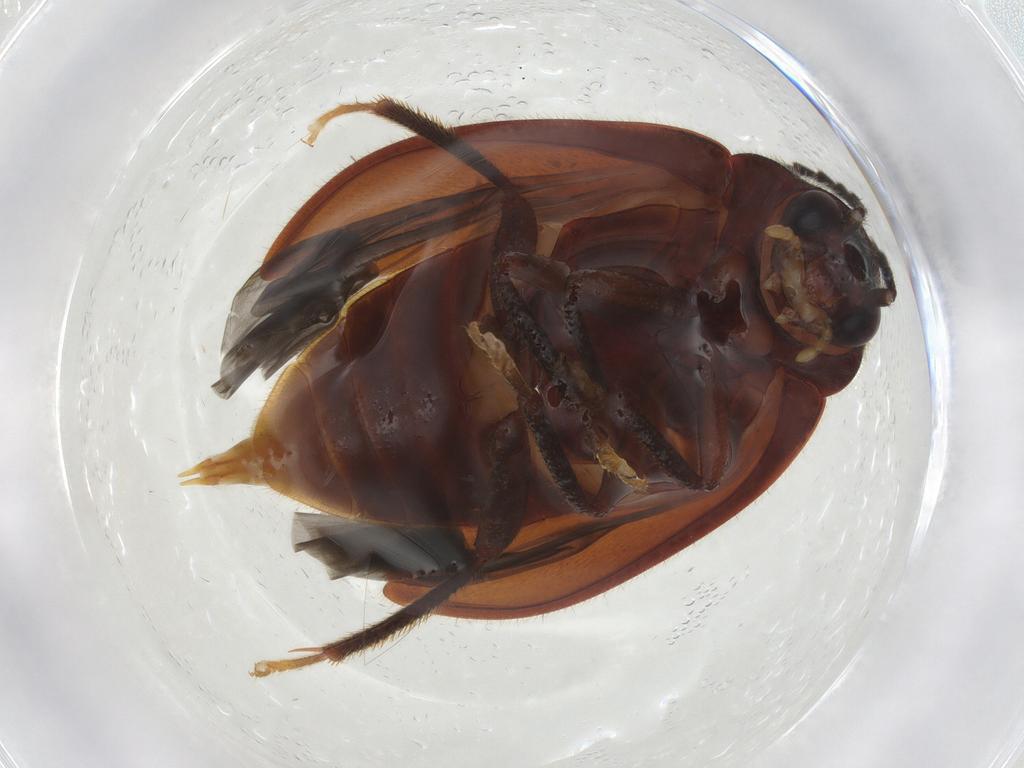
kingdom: Animalia
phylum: Arthropoda
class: Insecta
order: Coleoptera
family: Ptilodactylidae
